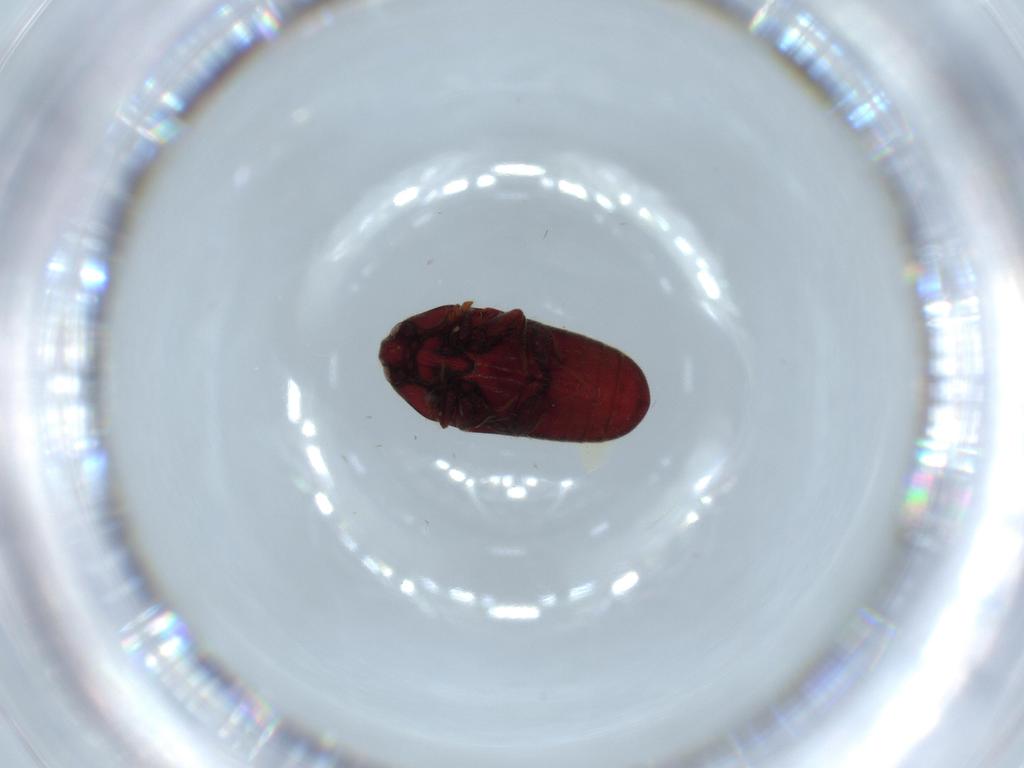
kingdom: Animalia
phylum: Arthropoda
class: Insecta
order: Coleoptera
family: Throscidae
